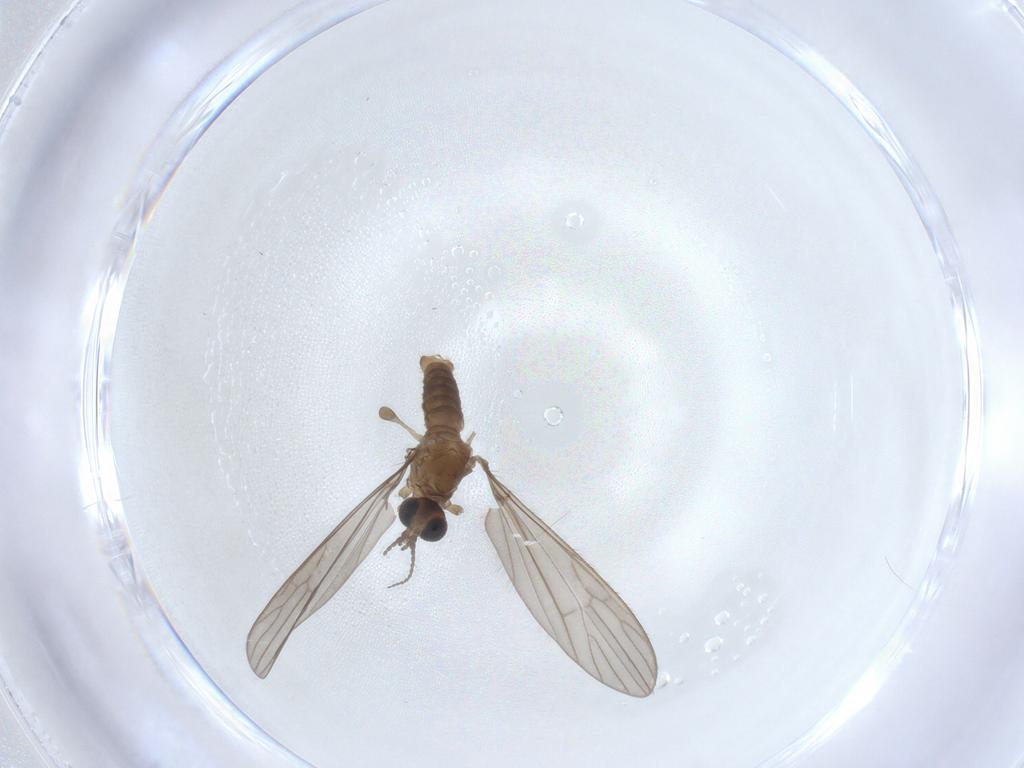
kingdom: Animalia
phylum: Arthropoda
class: Insecta
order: Diptera
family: Limoniidae
